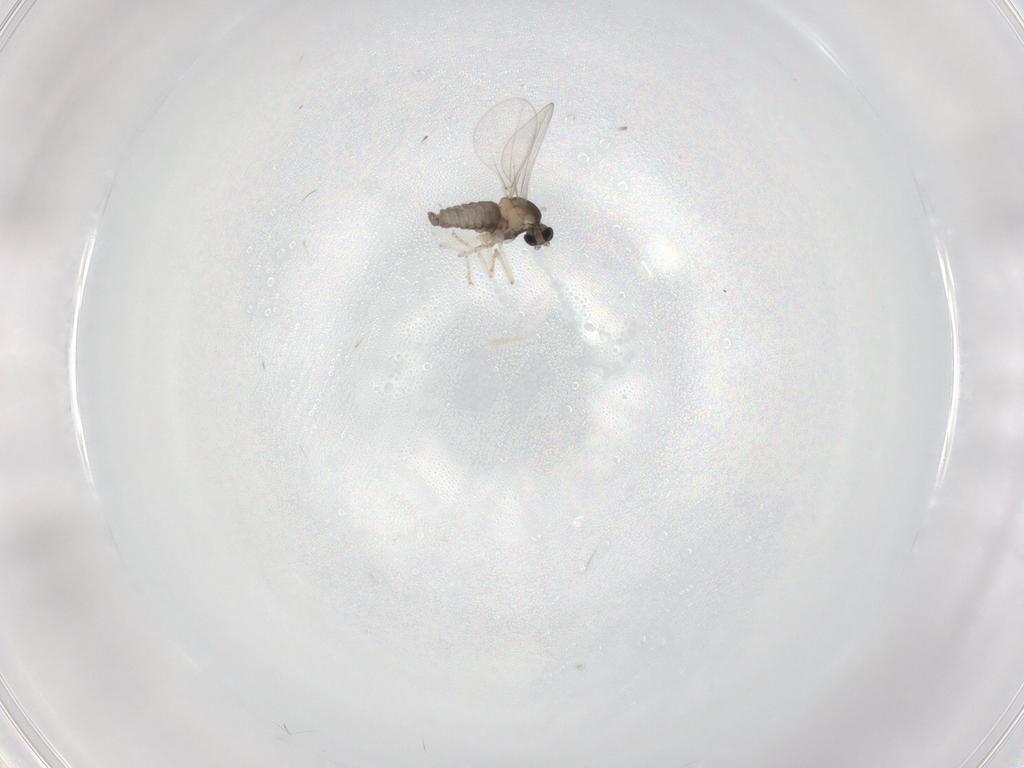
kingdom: Animalia
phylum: Arthropoda
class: Insecta
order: Diptera
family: Cecidomyiidae
